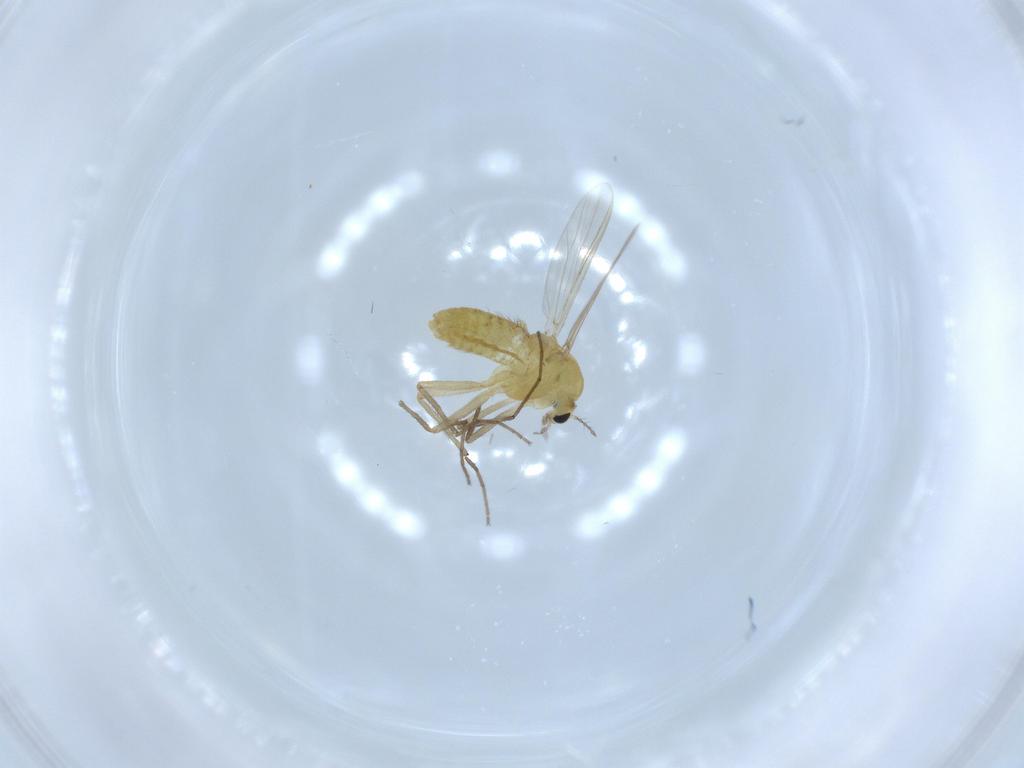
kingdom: Animalia
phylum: Arthropoda
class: Insecta
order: Diptera
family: Chironomidae
